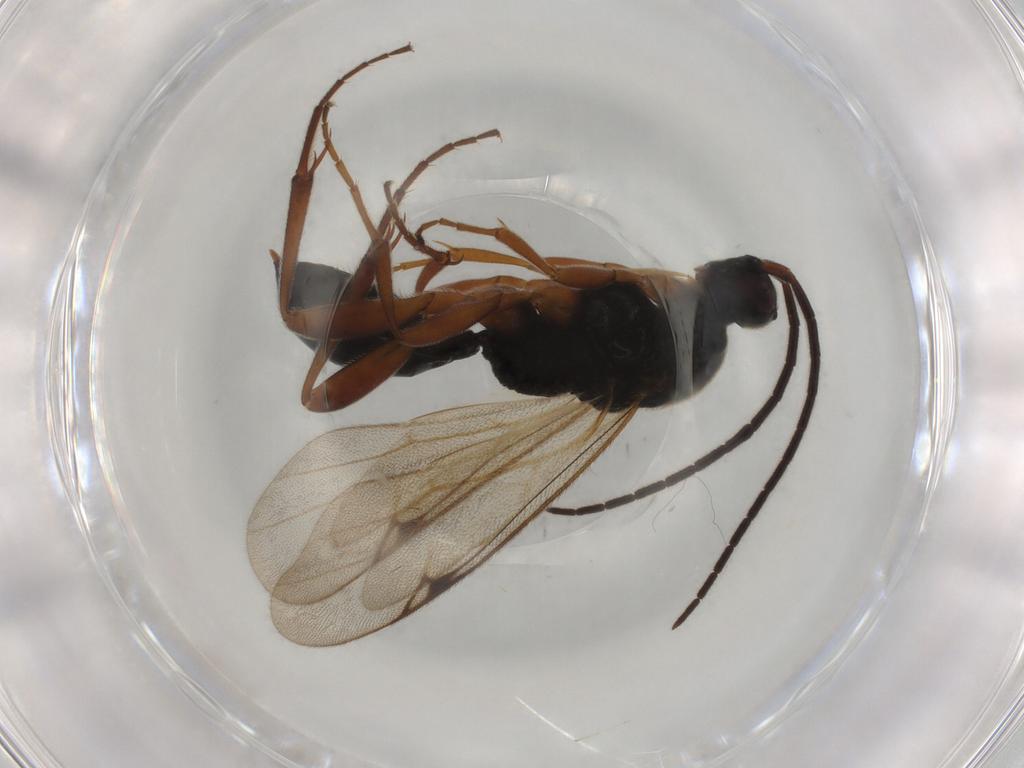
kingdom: Animalia
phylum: Arthropoda
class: Insecta
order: Hymenoptera
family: Proctotrupidae
